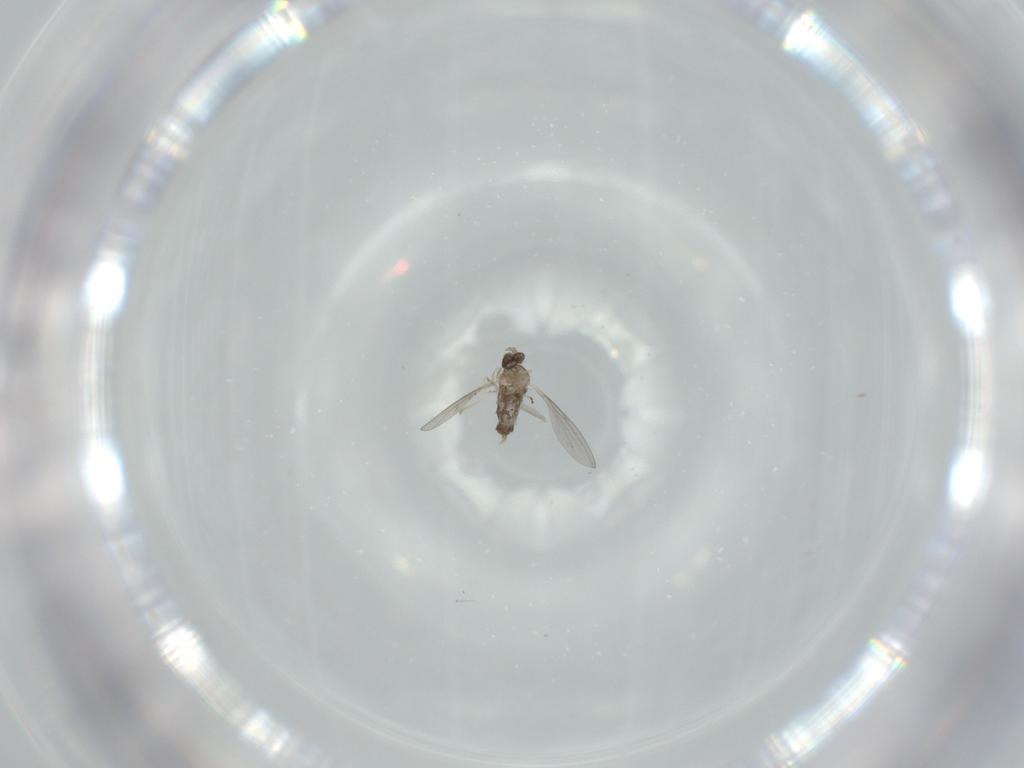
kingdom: Animalia
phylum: Arthropoda
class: Insecta
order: Diptera
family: Cecidomyiidae
